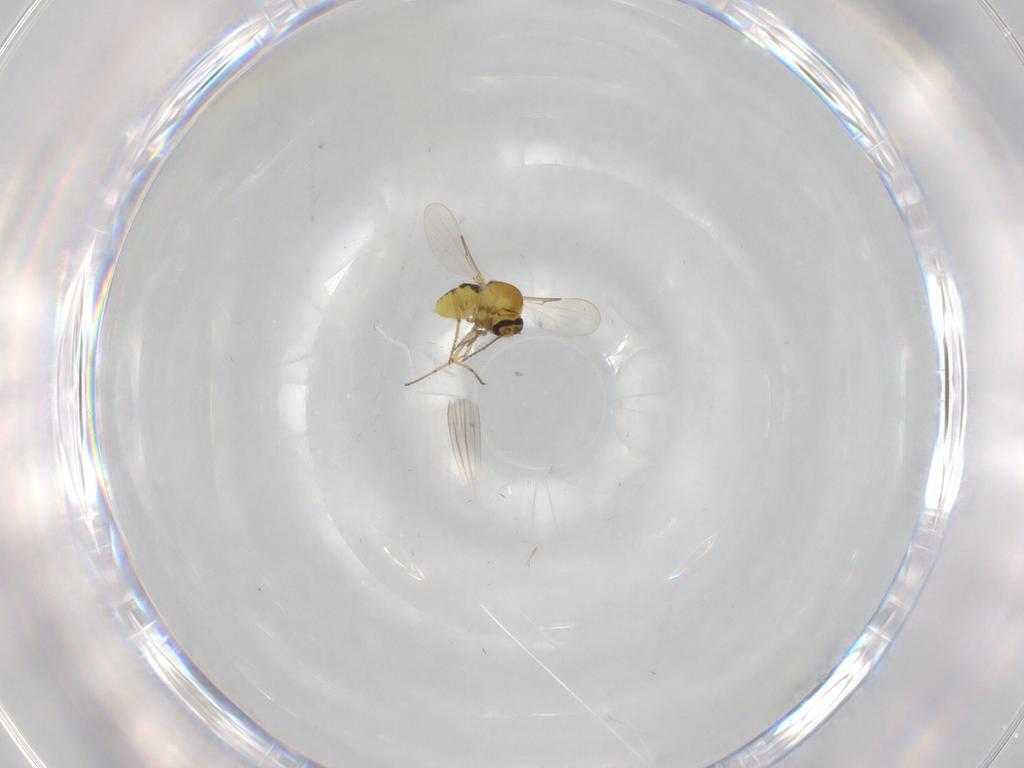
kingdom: Animalia
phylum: Arthropoda
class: Insecta
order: Diptera
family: Ceratopogonidae
